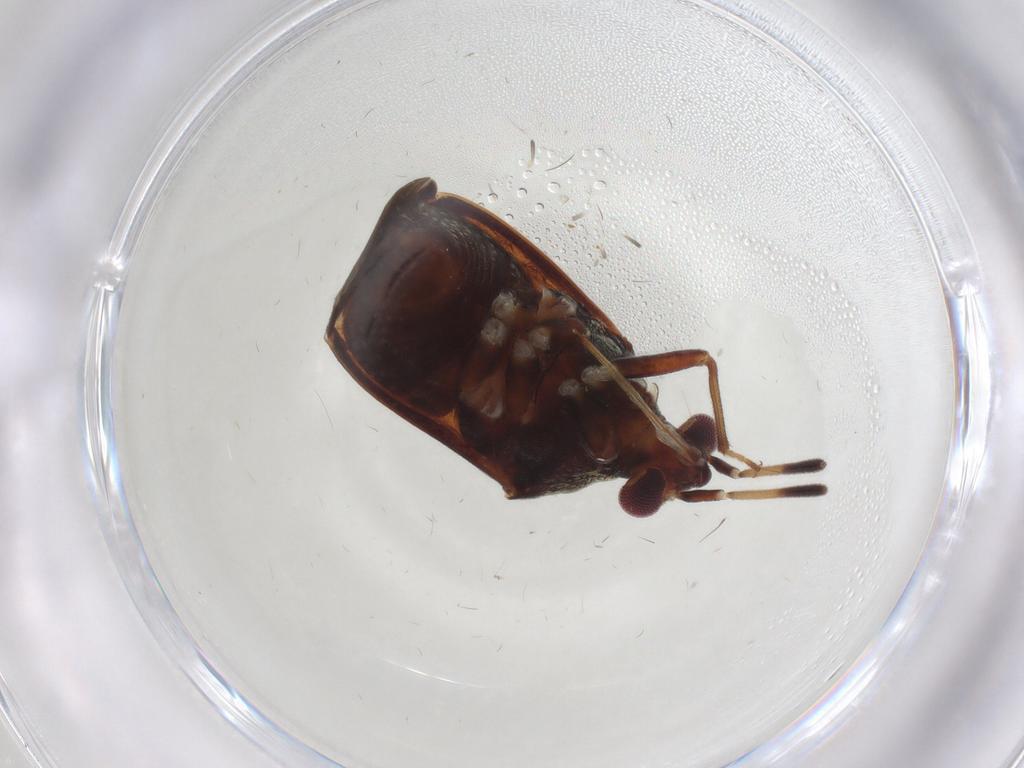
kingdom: Animalia
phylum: Arthropoda
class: Insecta
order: Hemiptera
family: Miridae
